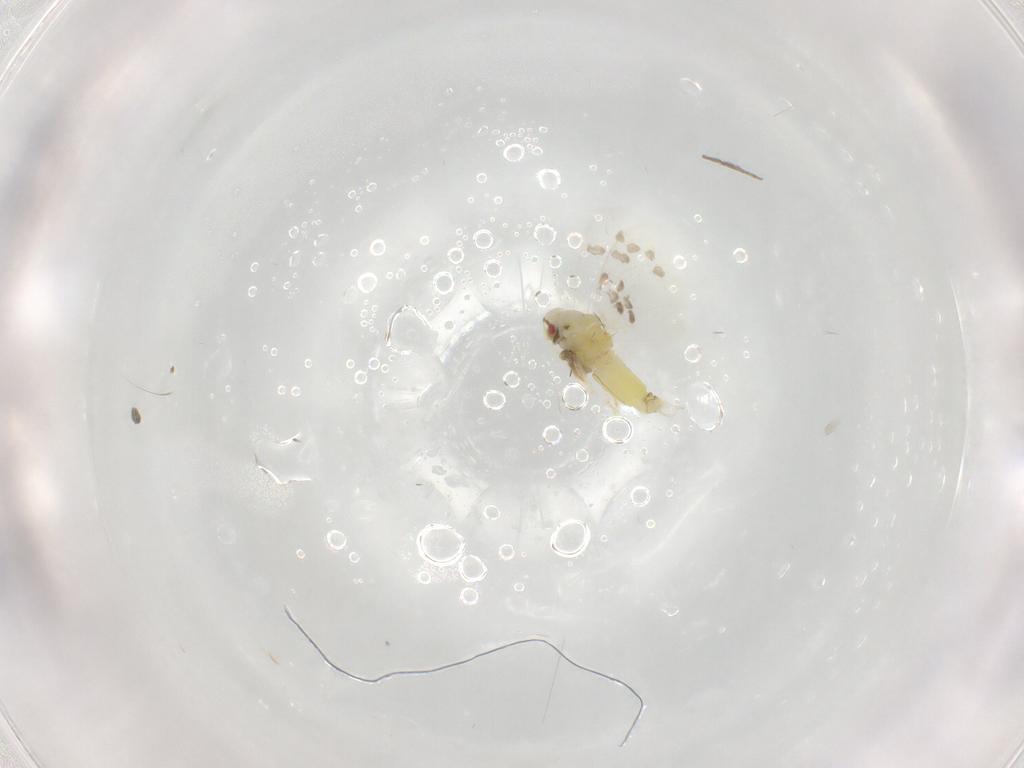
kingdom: Animalia
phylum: Arthropoda
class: Insecta
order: Hemiptera
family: Aleyrodidae
